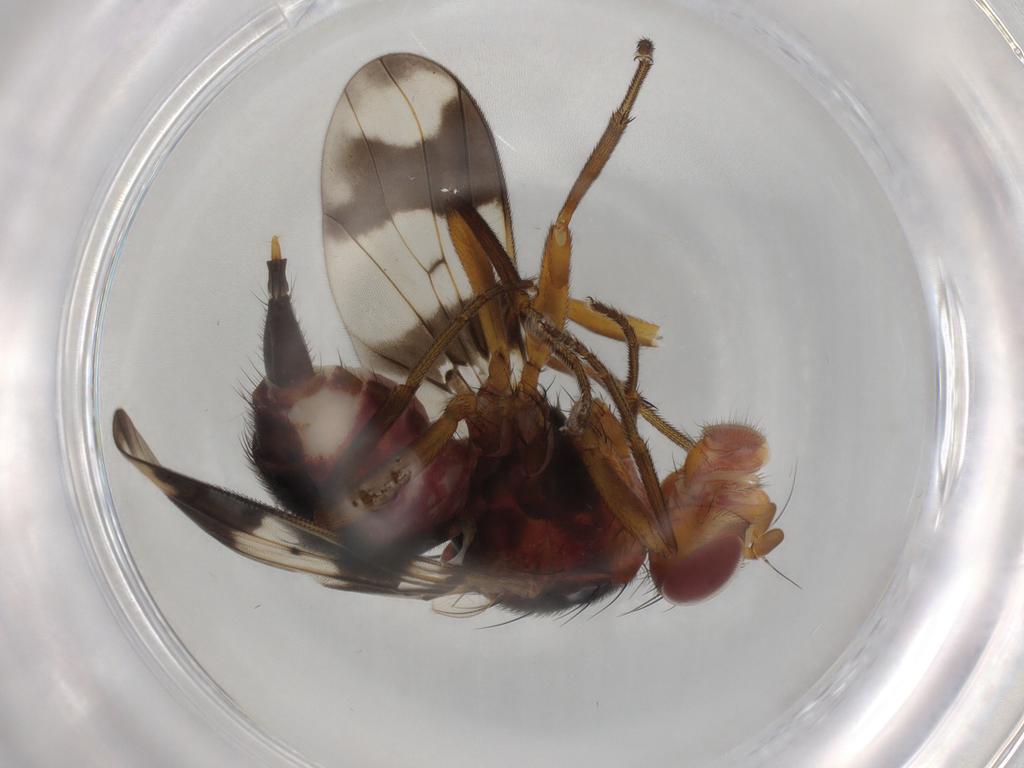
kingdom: Animalia
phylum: Arthropoda
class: Insecta
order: Diptera
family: Richardiidae
